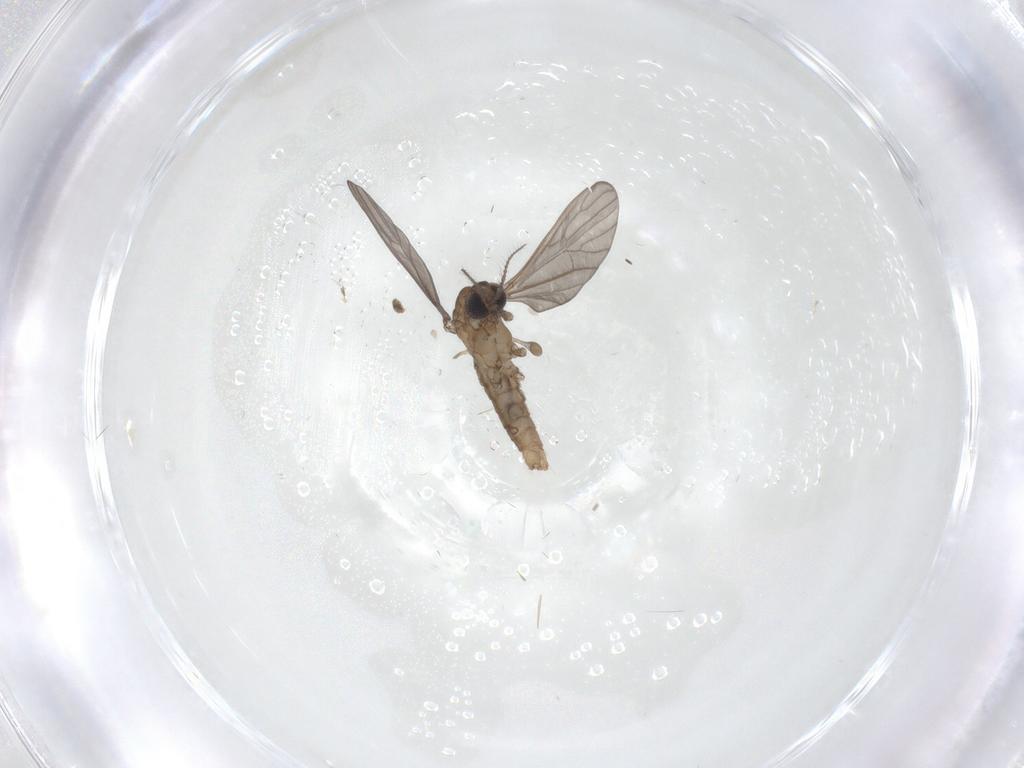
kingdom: Animalia
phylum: Arthropoda
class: Insecta
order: Diptera
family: Limoniidae
